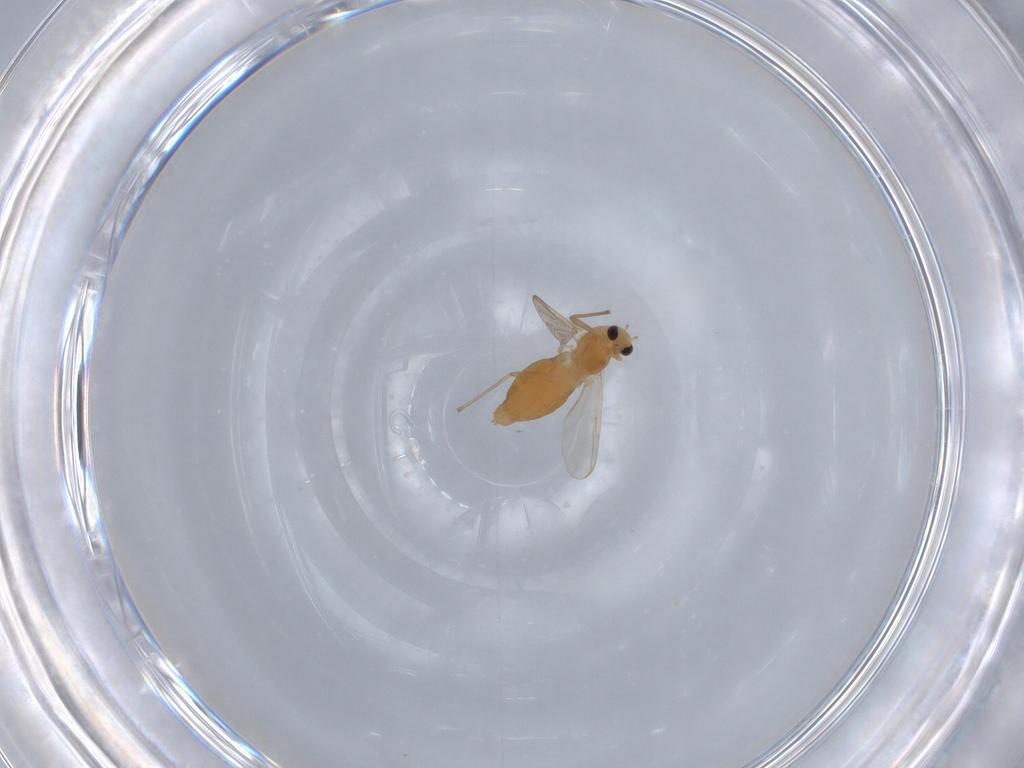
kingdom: Animalia
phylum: Arthropoda
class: Insecta
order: Diptera
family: Chironomidae
